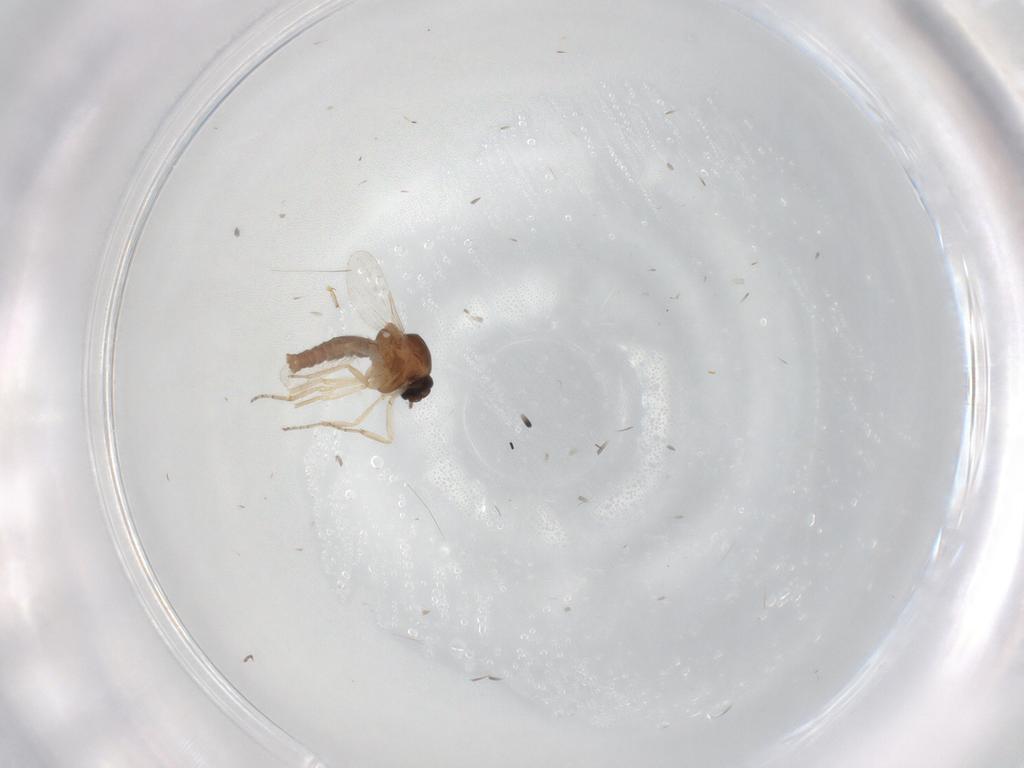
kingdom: Animalia
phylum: Arthropoda
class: Insecta
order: Diptera
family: Ceratopogonidae
